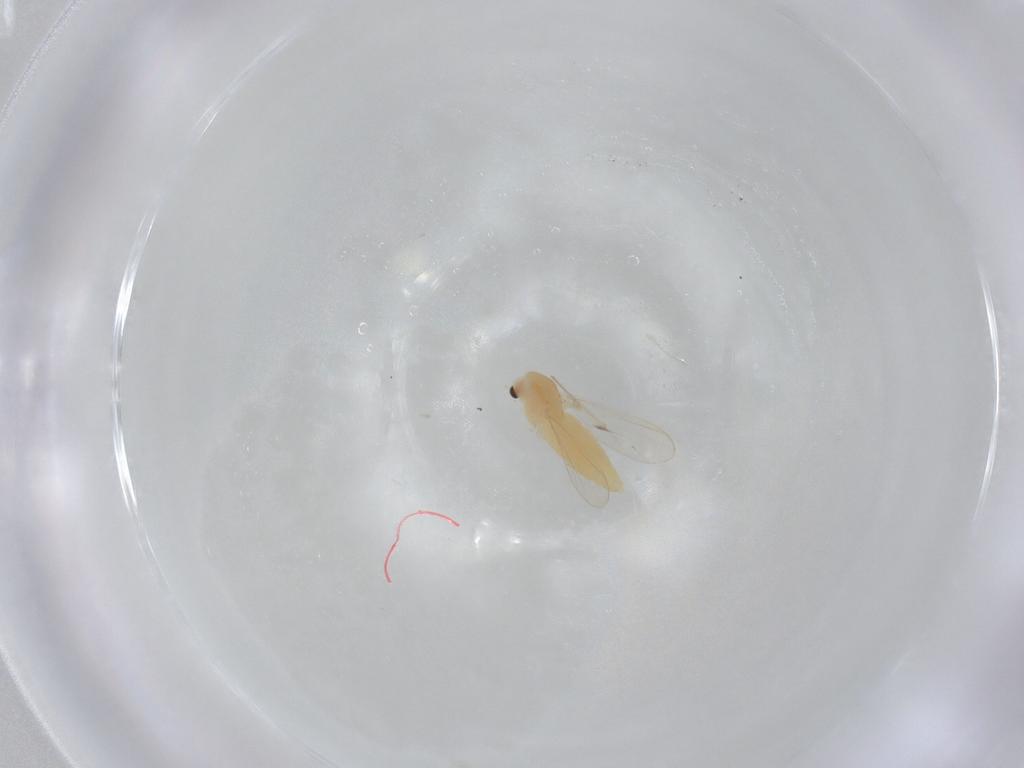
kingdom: Animalia
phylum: Arthropoda
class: Insecta
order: Diptera
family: Chironomidae
